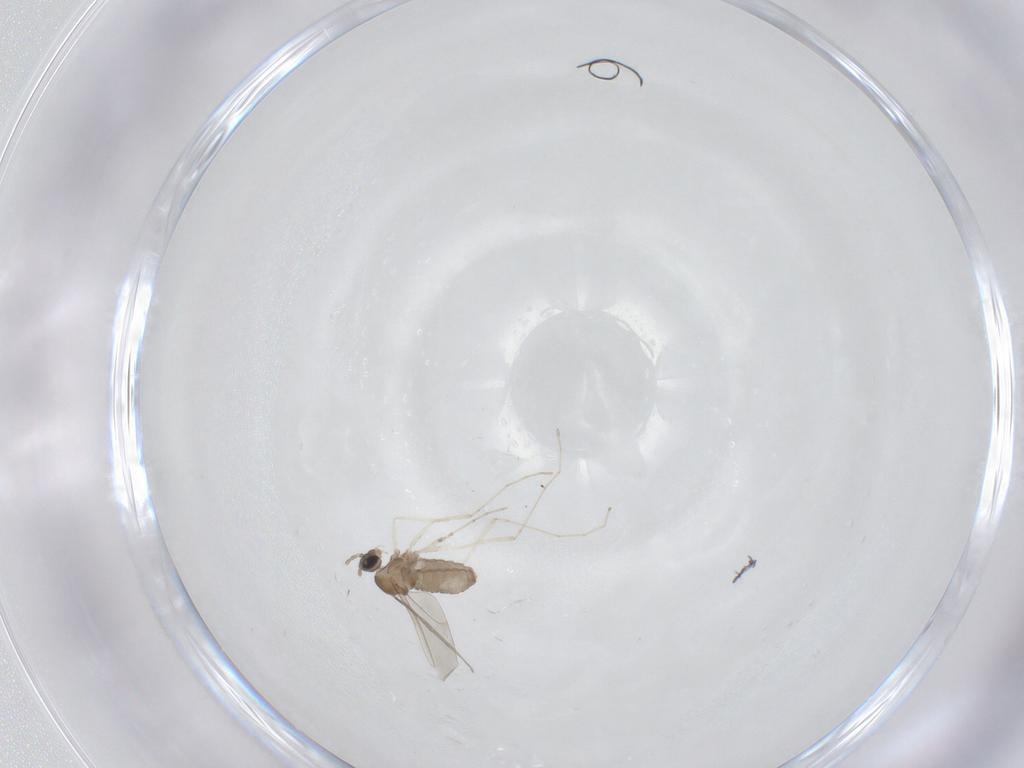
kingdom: Animalia
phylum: Arthropoda
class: Insecta
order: Diptera
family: Cecidomyiidae
